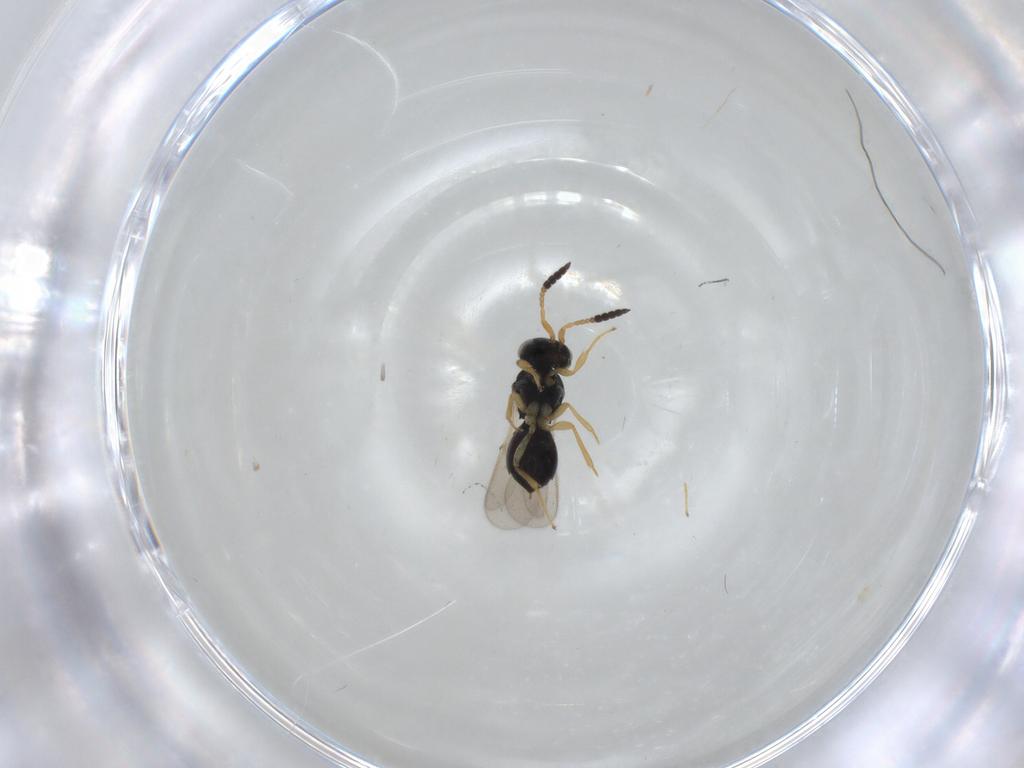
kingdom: Animalia
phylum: Arthropoda
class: Insecta
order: Hymenoptera
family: Scelionidae
